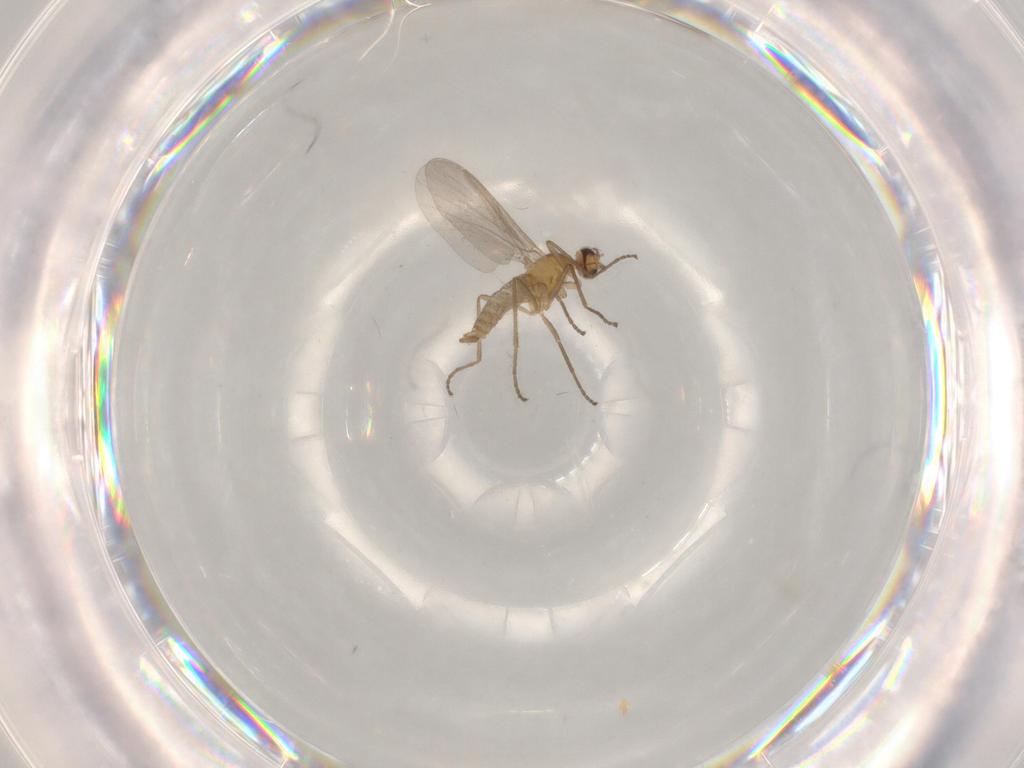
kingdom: Animalia
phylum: Arthropoda
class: Insecta
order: Diptera
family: Cecidomyiidae
